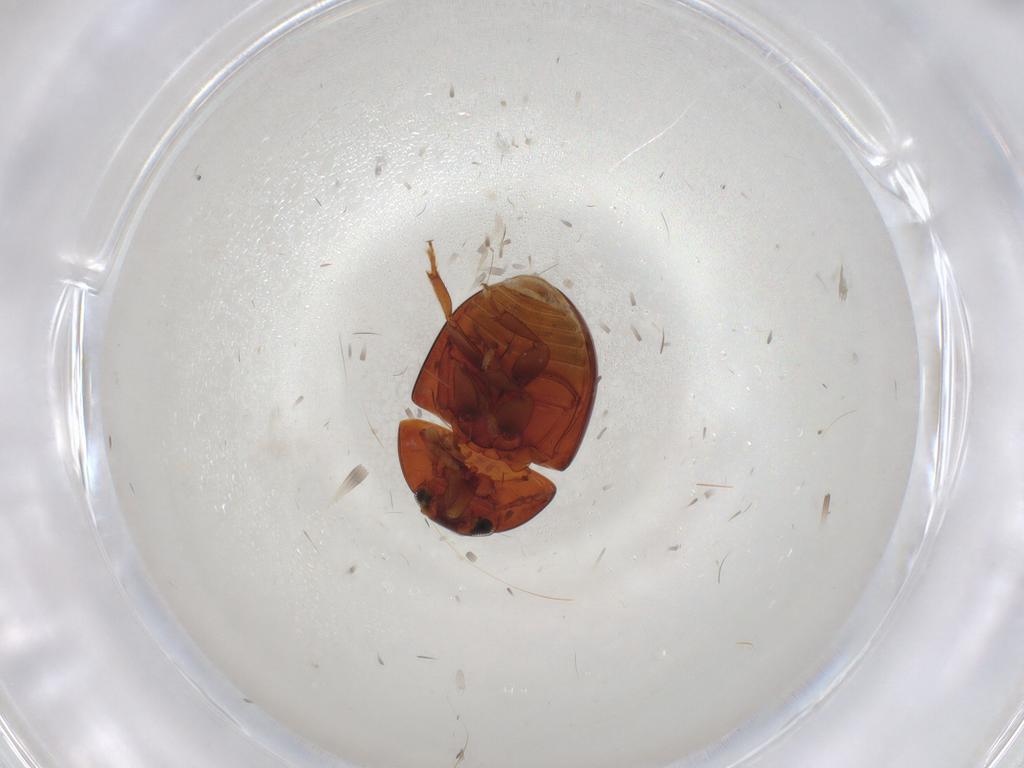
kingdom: Animalia
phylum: Arthropoda
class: Insecta
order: Coleoptera
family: Phalacridae
